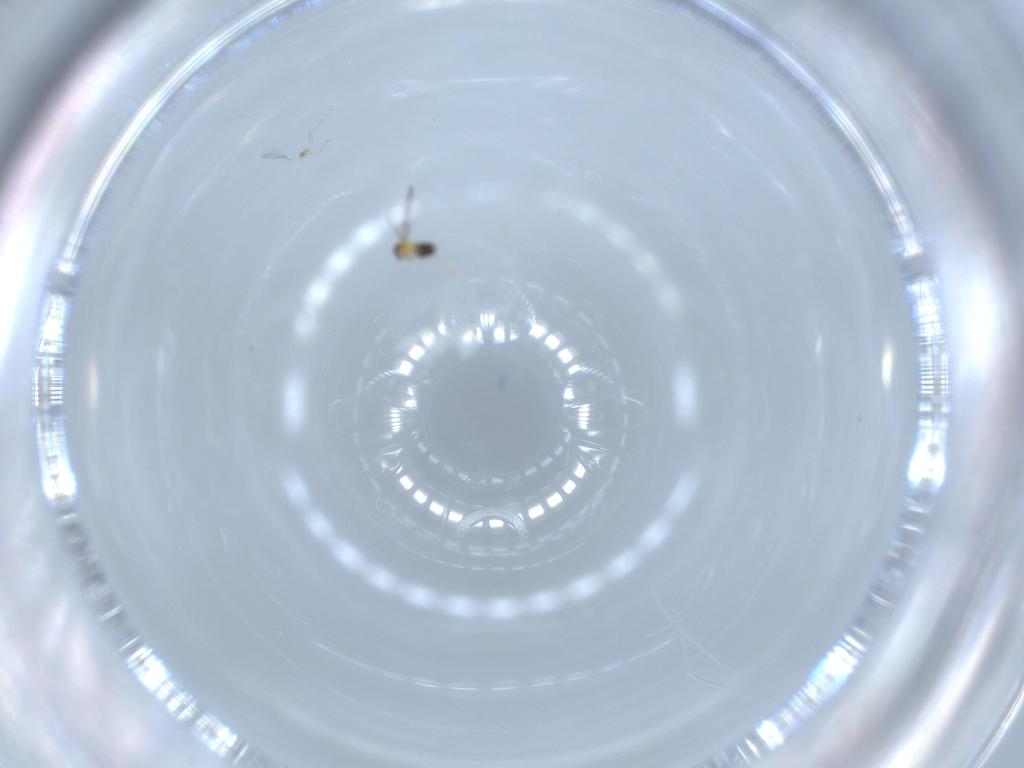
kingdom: Animalia
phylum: Arthropoda
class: Insecta
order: Hymenoptera
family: Aphelinidae
